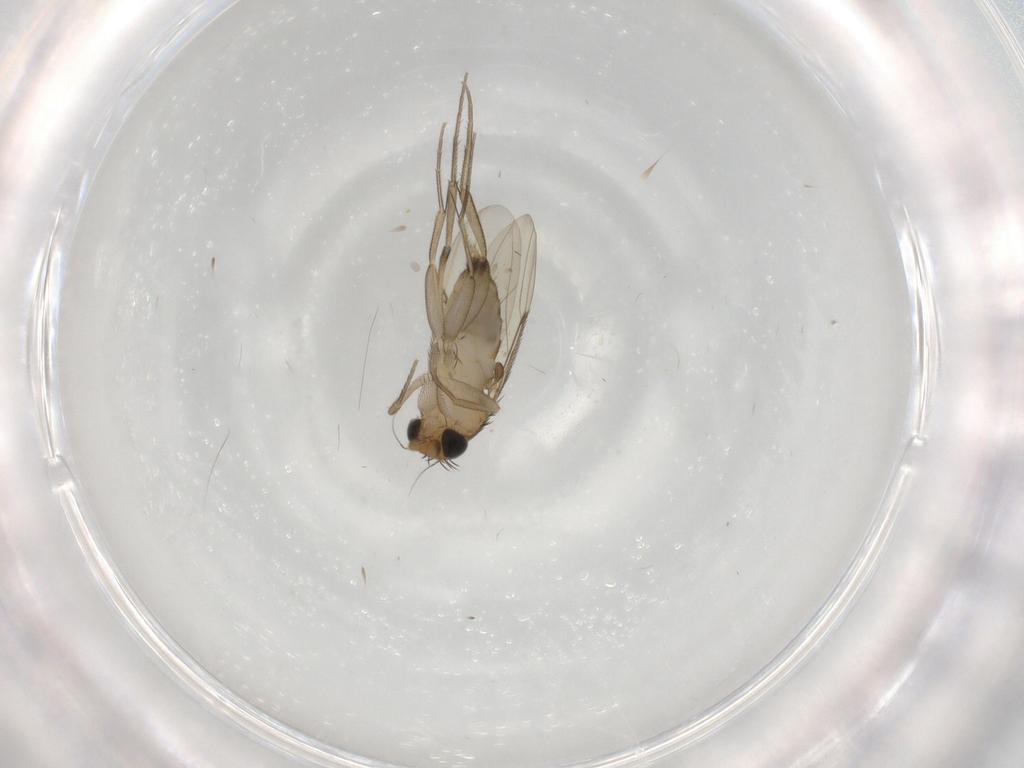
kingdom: Animalia
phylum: Arthropoda
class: Insecta
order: Diptera
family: Phoridae
